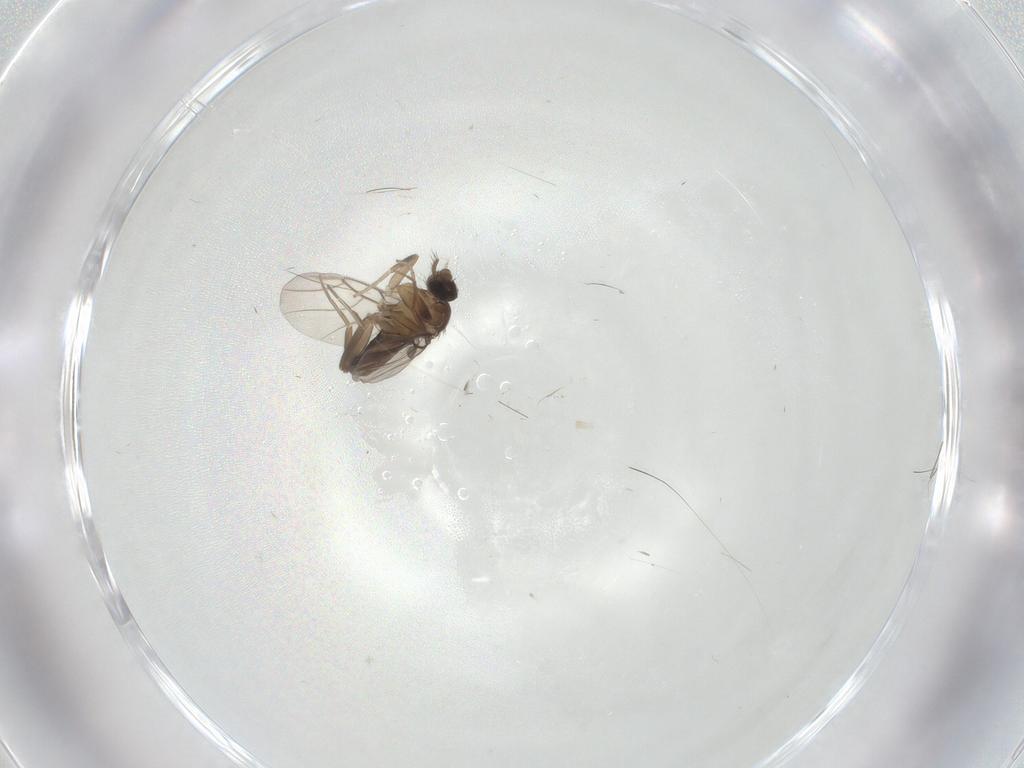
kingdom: Animalia
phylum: Arthropoda
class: Insecta
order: Diptera
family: Phoridae
